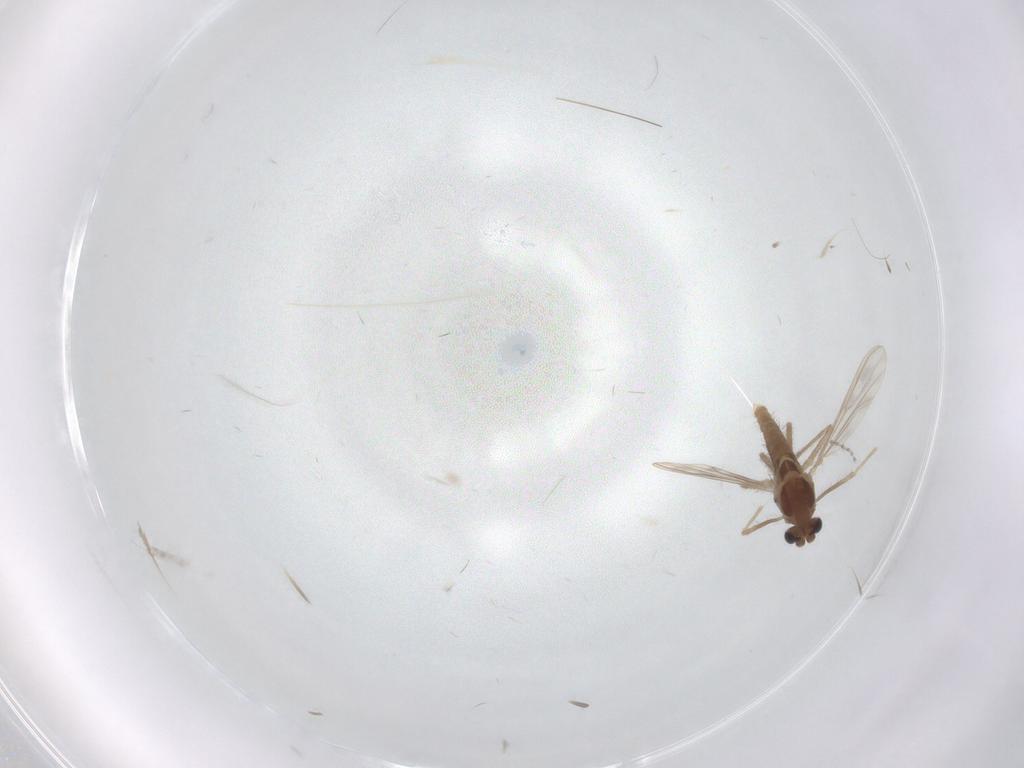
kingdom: Animalia
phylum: Arthropoda
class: Insecta
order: Diptera
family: Chironomidae
